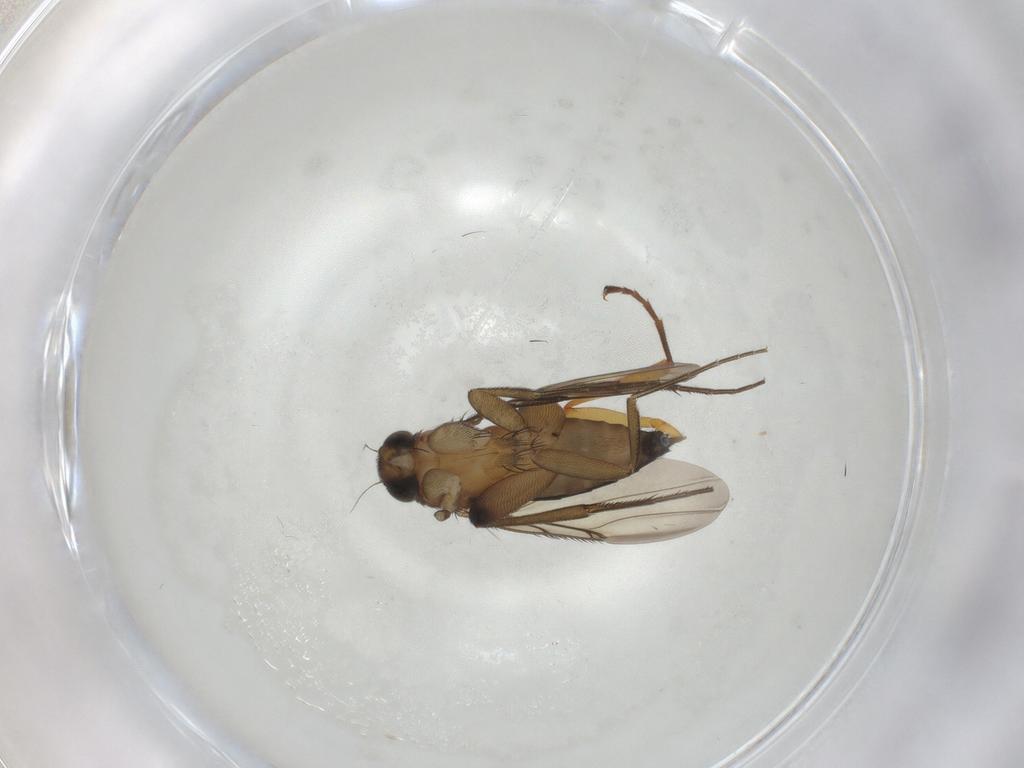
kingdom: Animalia
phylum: Arthropoda
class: Insecta
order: Diptera
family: Phoridae
